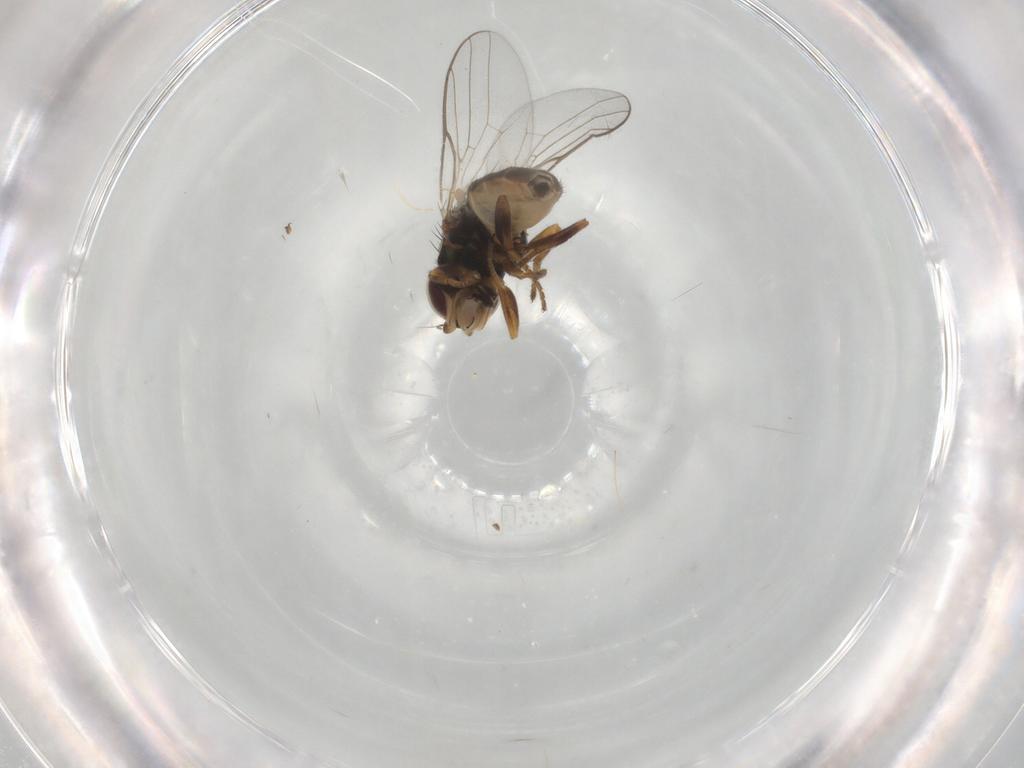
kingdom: Animalia
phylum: Arthropoda
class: Insecta
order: Diptera
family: Chloropidae
